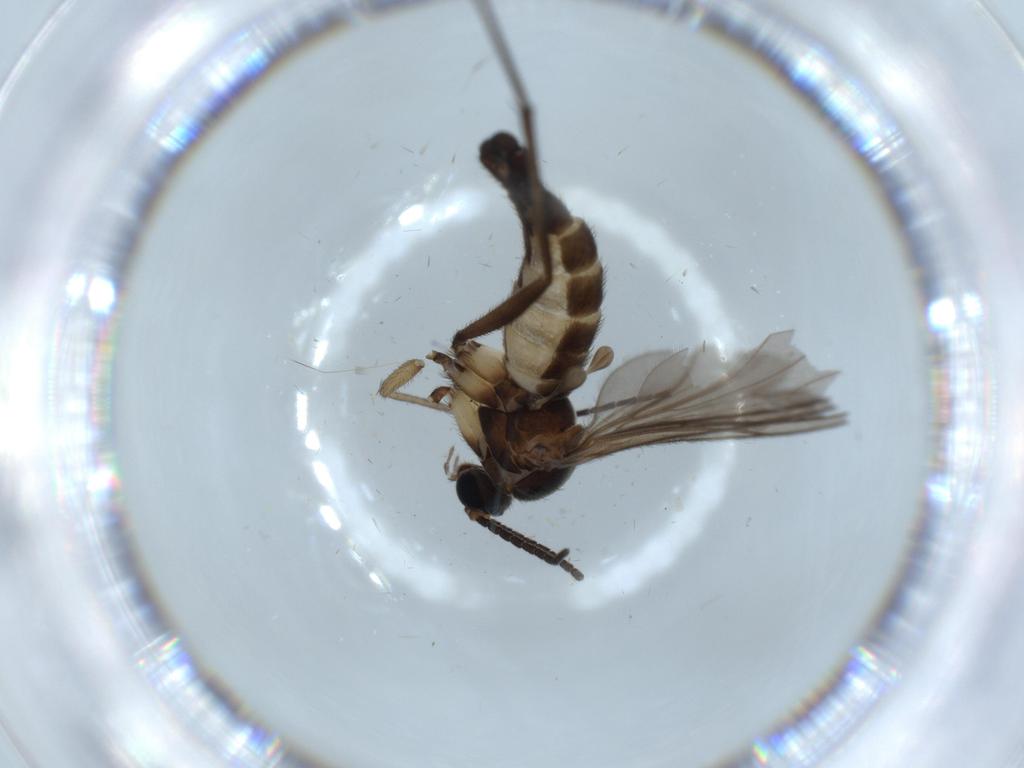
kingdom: Animalia
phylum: Arthropoda
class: Insecta
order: Diptera
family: Sciaridae
